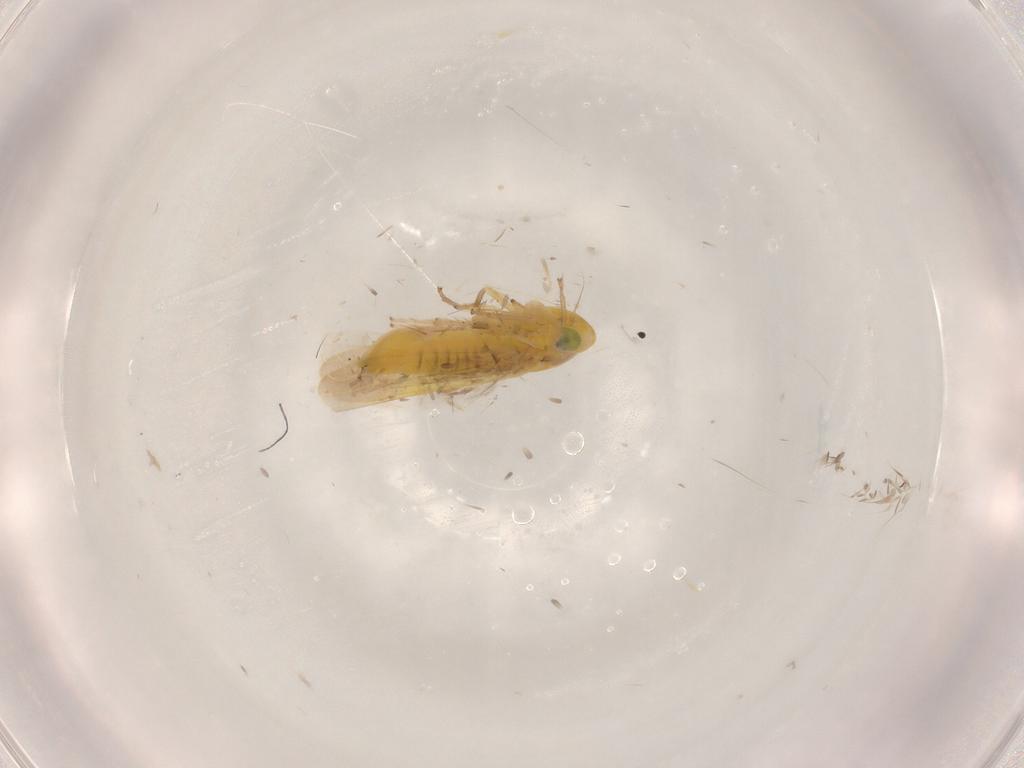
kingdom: Animalia
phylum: Arthropoda
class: Insecta
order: Hemiptera
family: Cicadellidae
